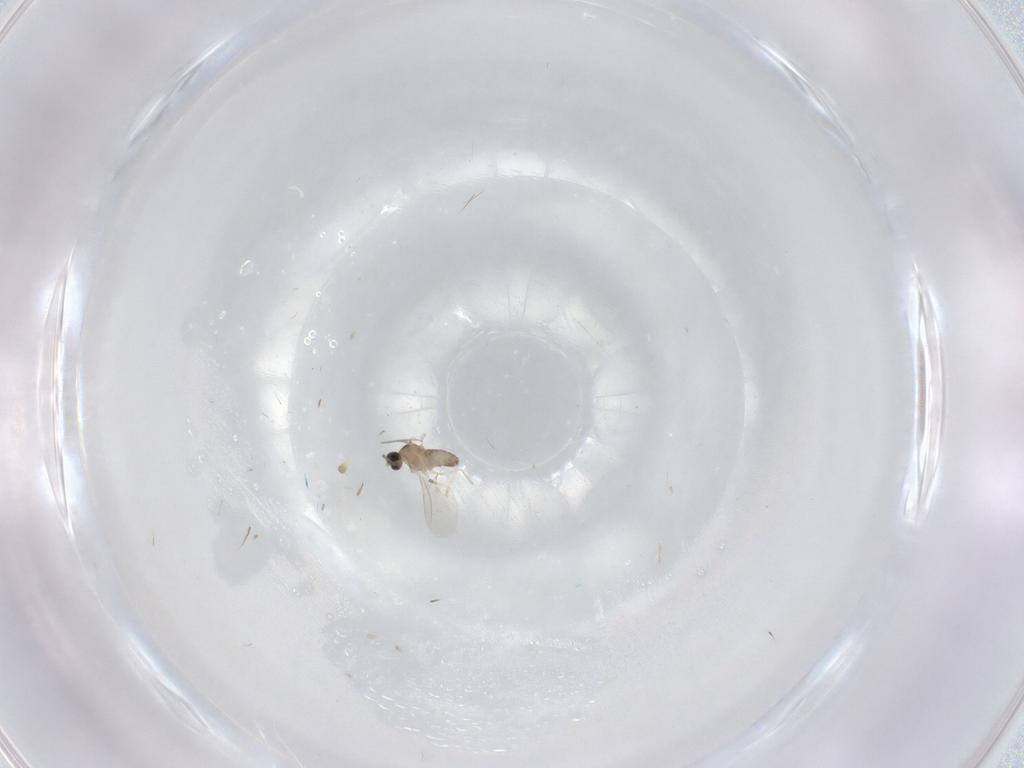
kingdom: Animalia
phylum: Arthropoda
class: Insecta
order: Diptera
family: Cecidomyiidae
